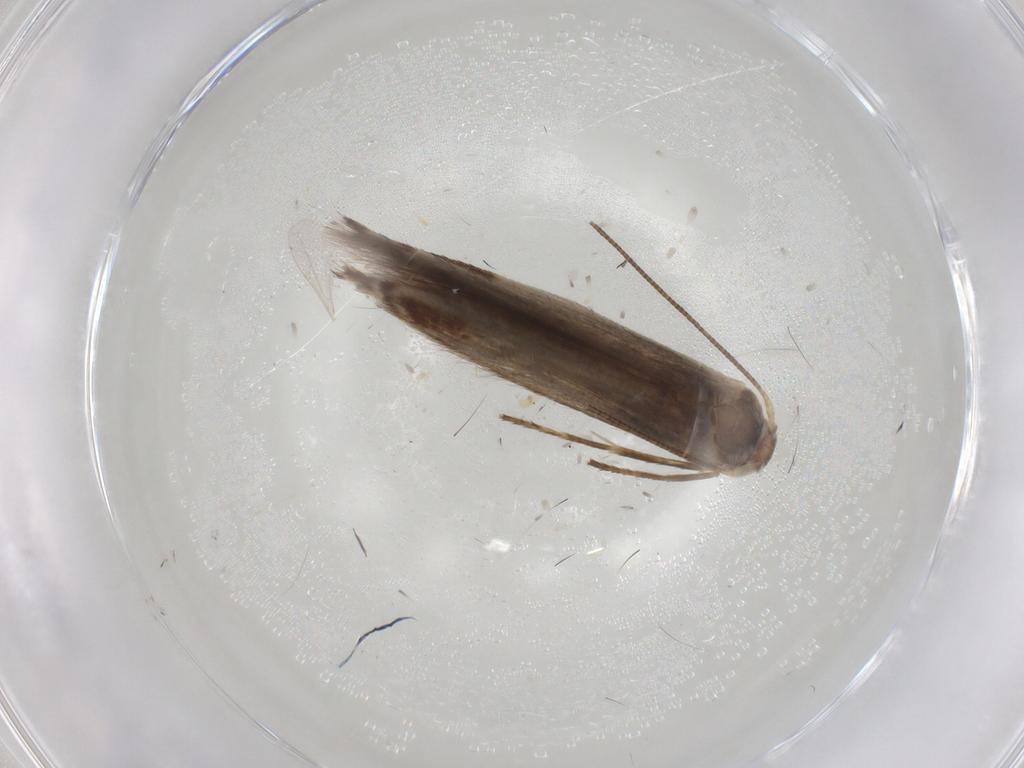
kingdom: Animalia
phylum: Arthropoda
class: Insecta
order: Lepidoptera
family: Lyonetiidae
